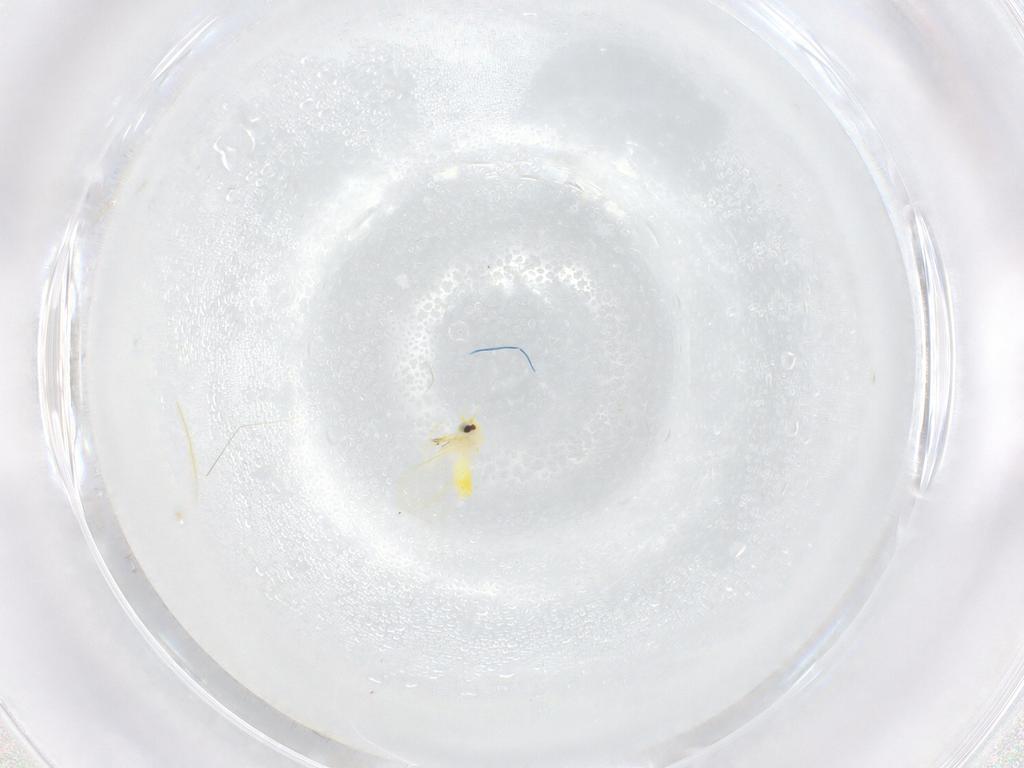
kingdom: Animalia
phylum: Arthropoda
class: Insecta
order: Hemiptera
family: Aleyrodidae
